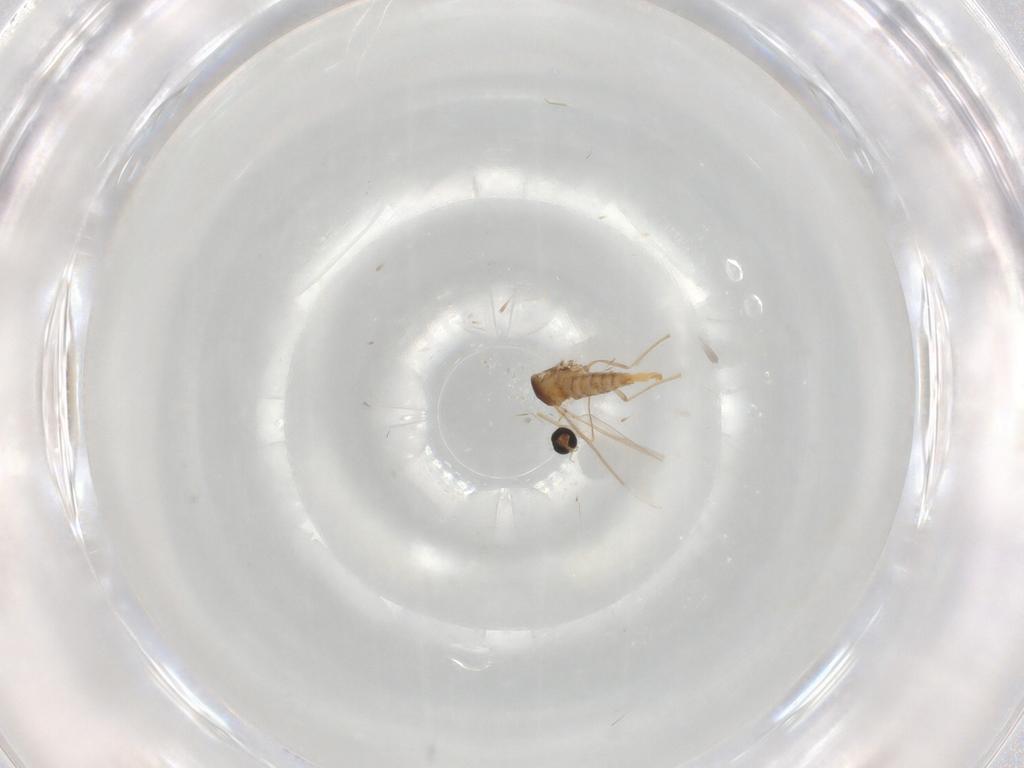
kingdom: Animalia
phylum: Arthropoda
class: Insecta
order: Diptera
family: Cecidomyiidae
